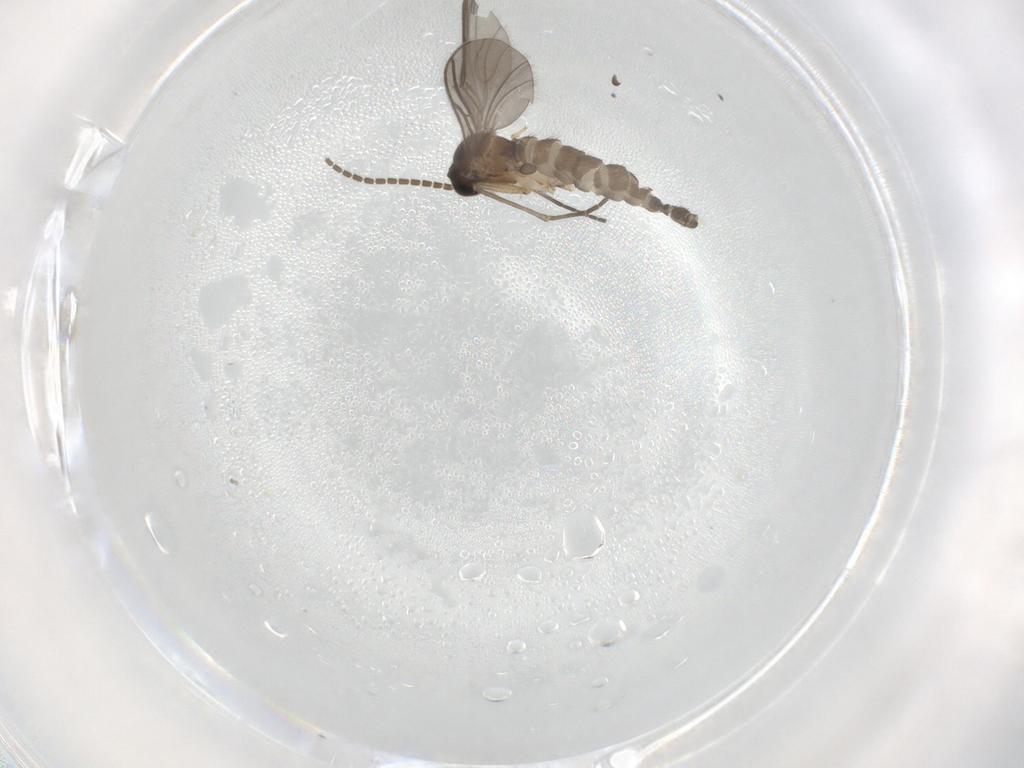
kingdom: Animalia
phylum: Arthropoda
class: Insecta
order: Diptera
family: Sciaridae
